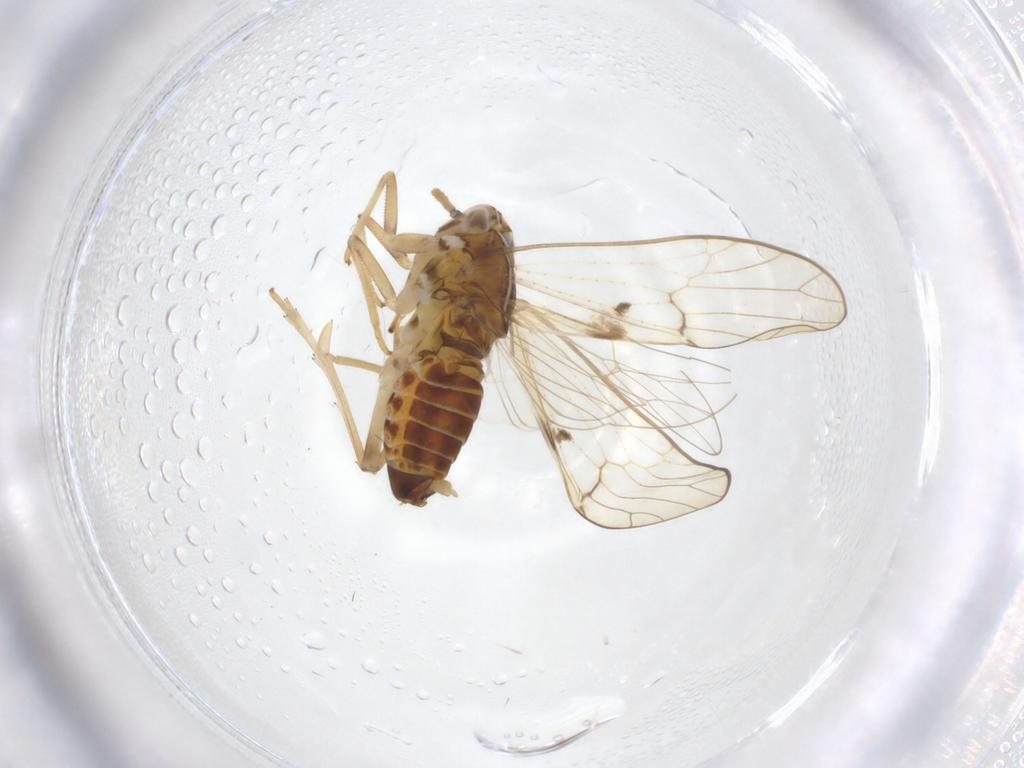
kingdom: Animalia
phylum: Arthropoda
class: Insecta
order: Hemiptera
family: Delphacidae
